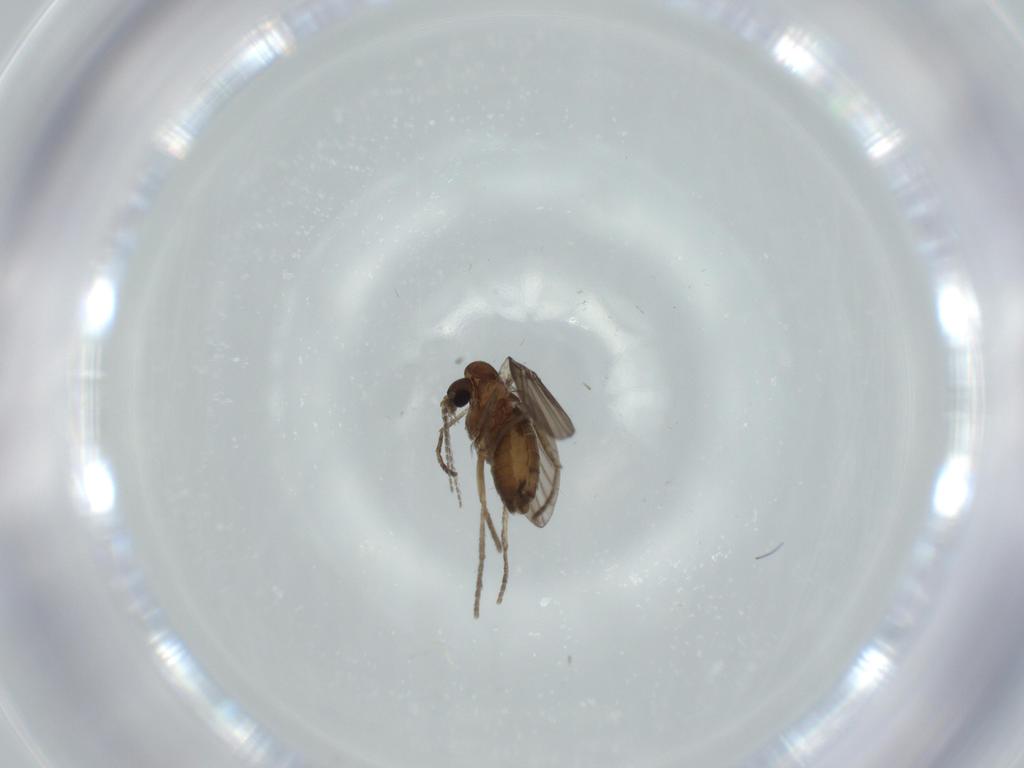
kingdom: Animalia
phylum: Arthropoda
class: Insecta
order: Diptera
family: Psychodidae
